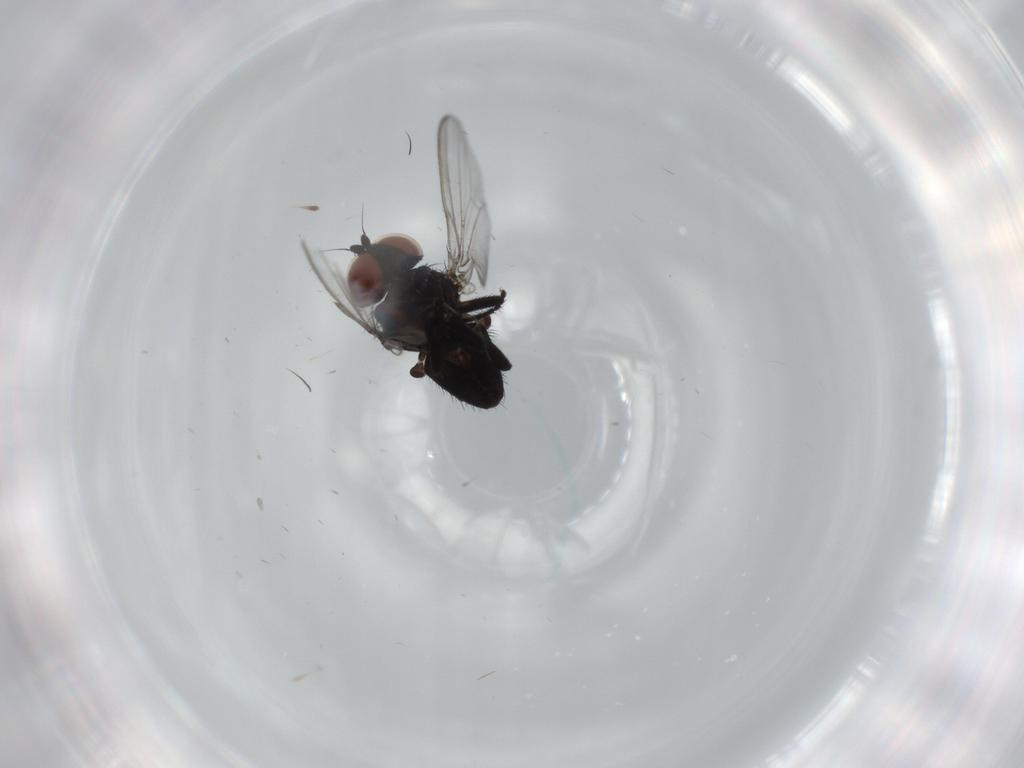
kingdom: Animalia
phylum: Arthropoda
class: Insecta
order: Diptera
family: Milichiidae
